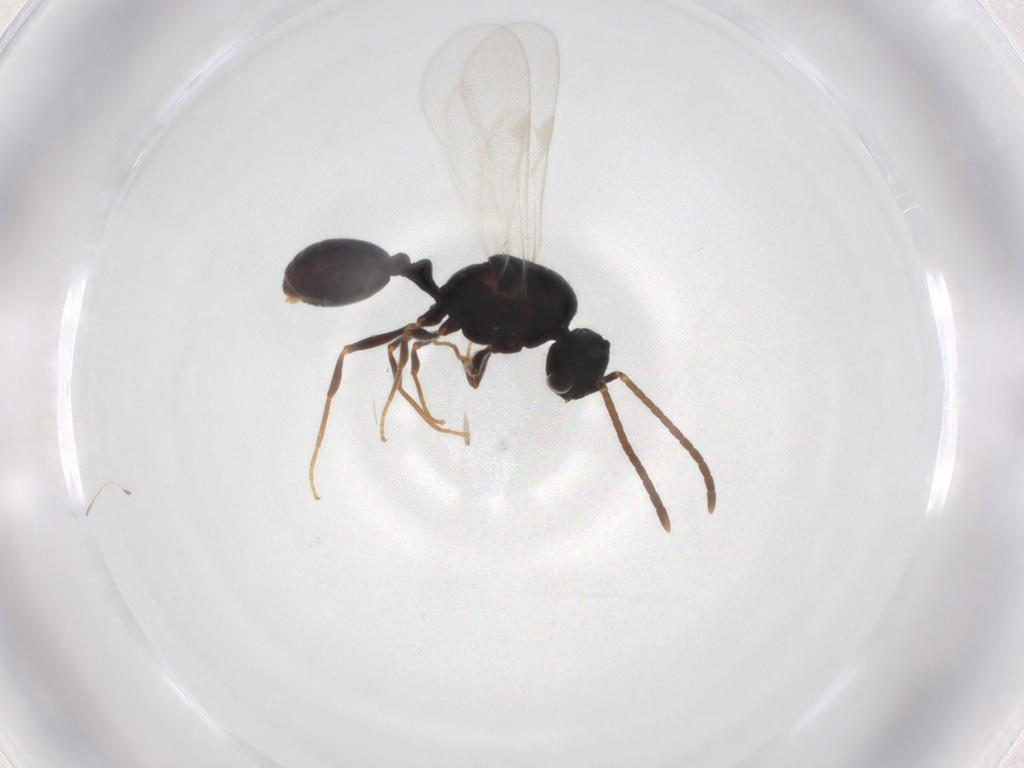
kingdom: Animalia
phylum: Arthropoda
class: Insecta
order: Hymenoptera
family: Formicidae
